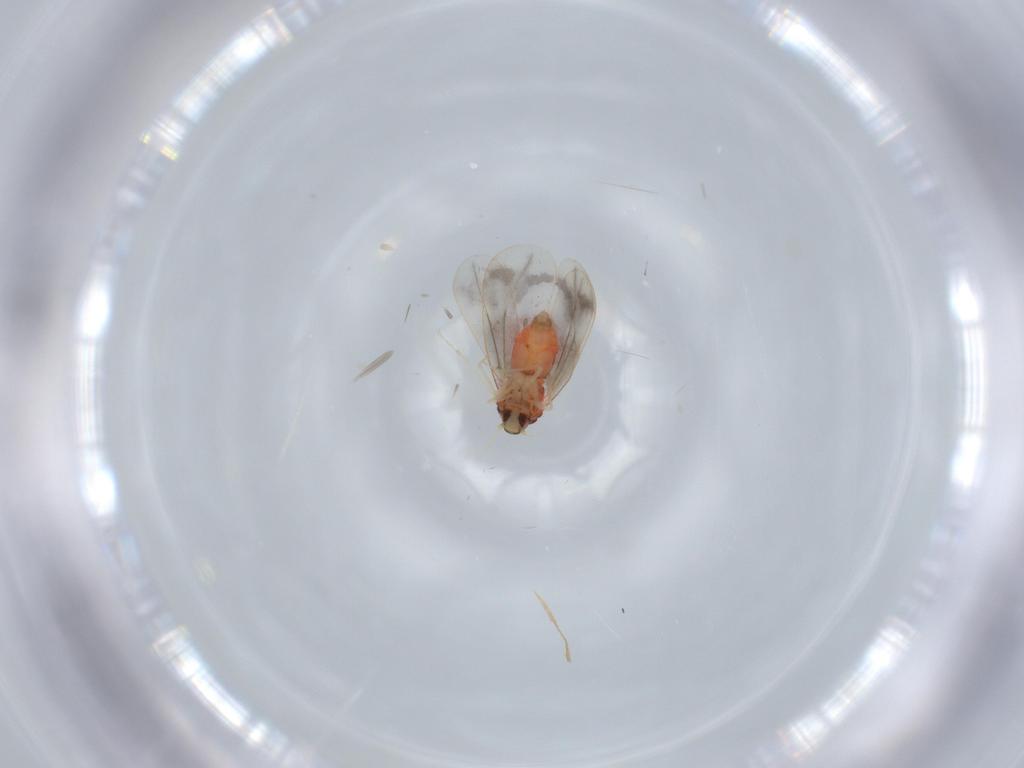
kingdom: Animalia
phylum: Arthropoda
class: Insecta
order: Hemiptera
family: Aleyrodidae
